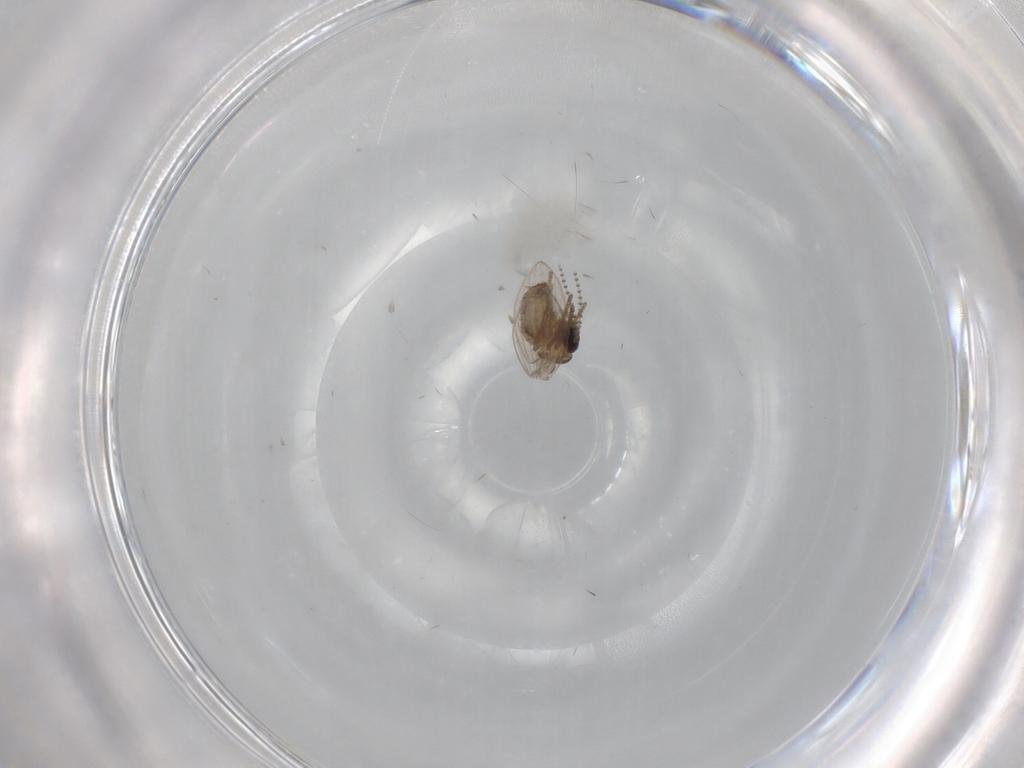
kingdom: Animalia
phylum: Arthropoda
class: Insecta
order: Diptera
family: Psychodidae
